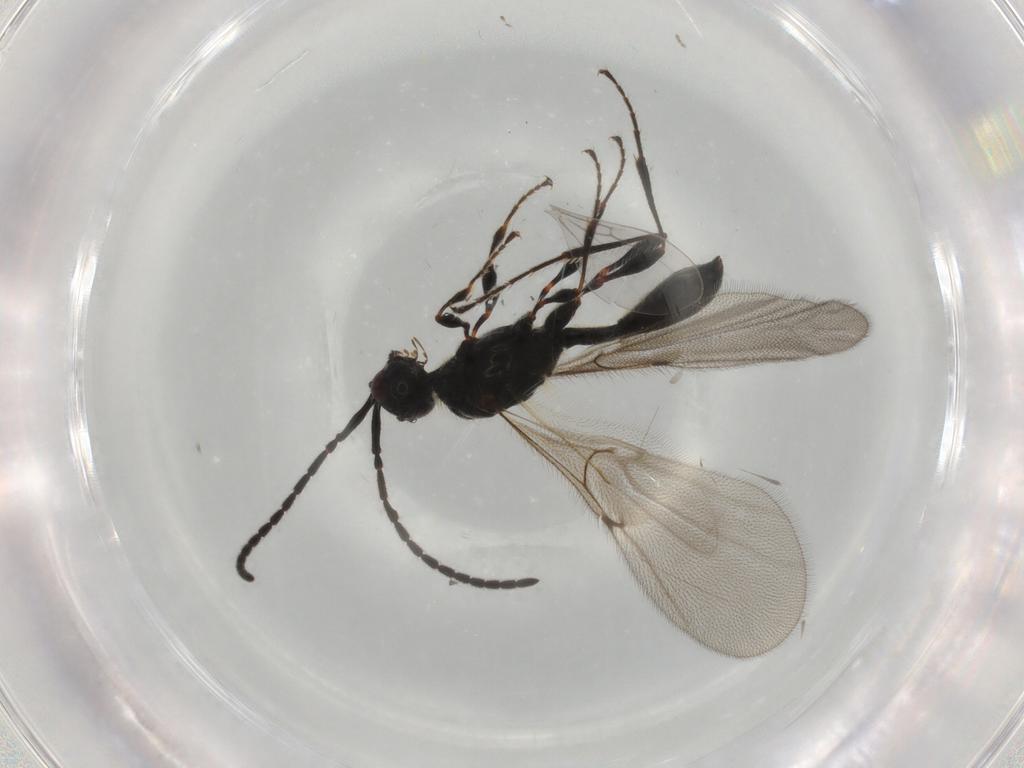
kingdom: Animalia
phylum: Arthropoda
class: Insecta
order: Hymenoptera
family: Diapriidae
